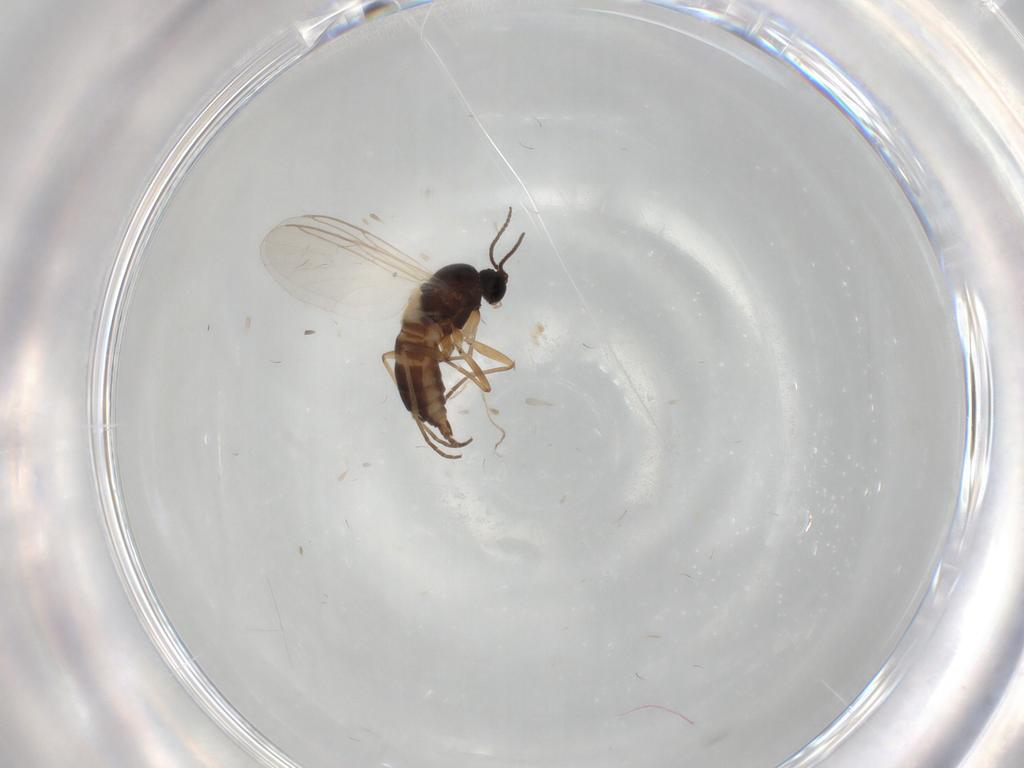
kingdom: Animalia
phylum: Arthropoda
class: Insecta
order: Diptera
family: Sciaridae
